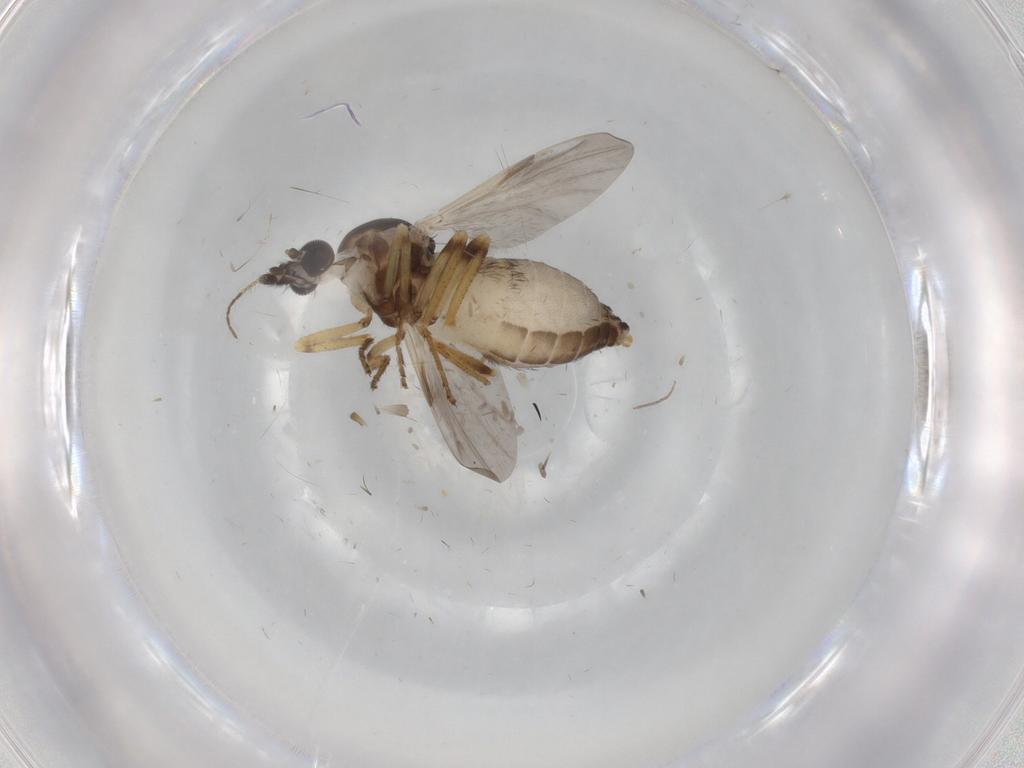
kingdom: Animalia
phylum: Arthropoda
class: Insecta
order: Diptera
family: Ceratopogonidae
